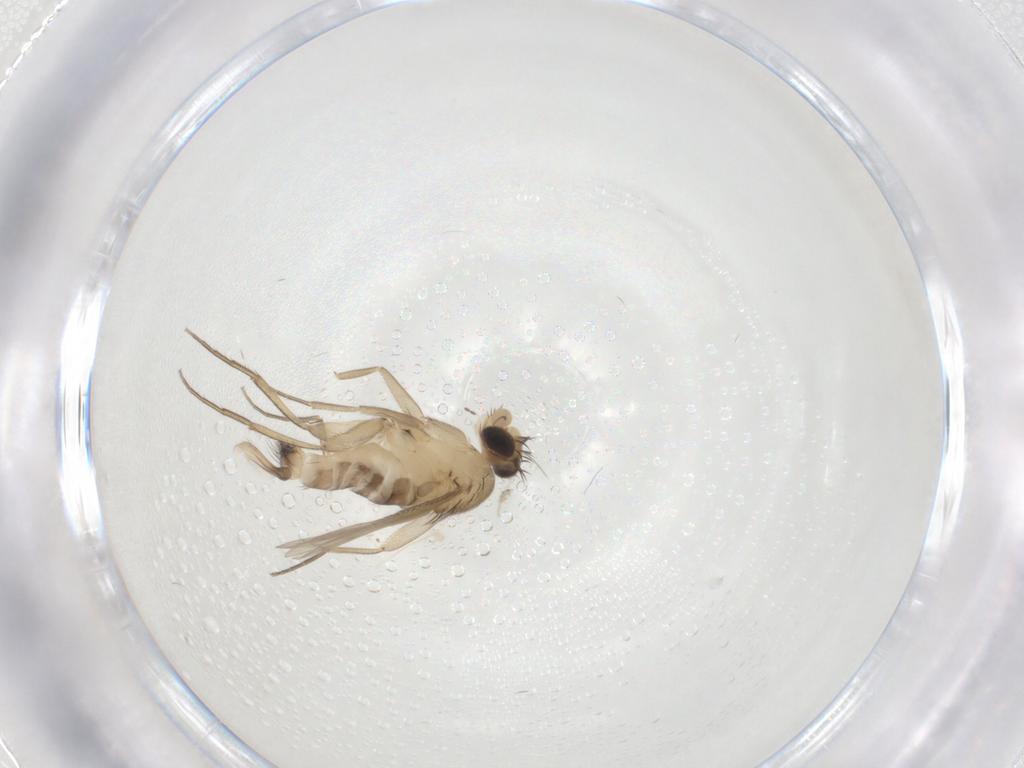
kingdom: Animalia
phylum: Arthropoda
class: Insecta
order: Diptera
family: Phoridae
